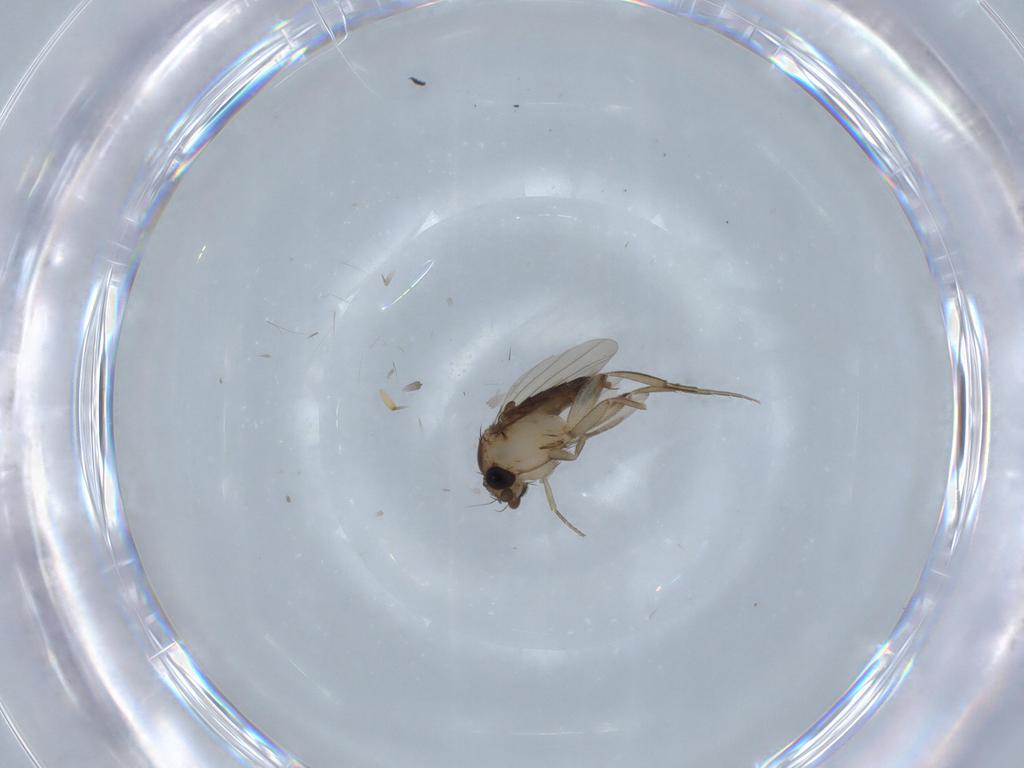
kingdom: Animalia
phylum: Arthropoda
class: Insecta
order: Diptera
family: Phoridae
